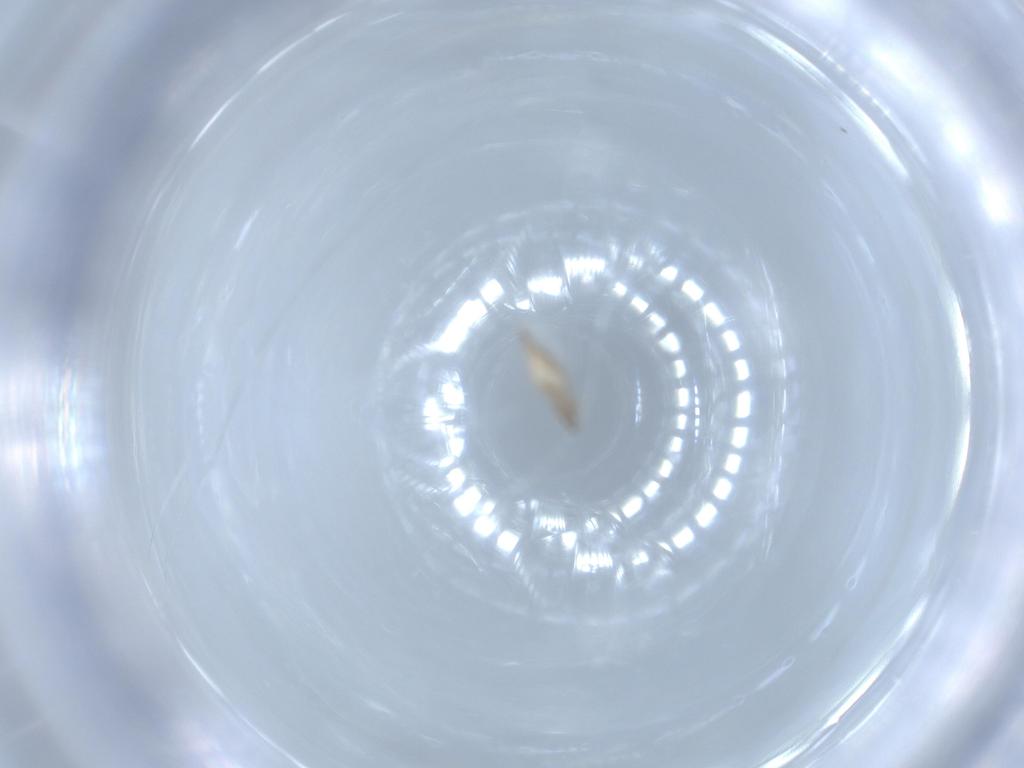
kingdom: Animalia
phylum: Arthropoda
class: Insecta
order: Diptera
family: Cecidomyiidae
